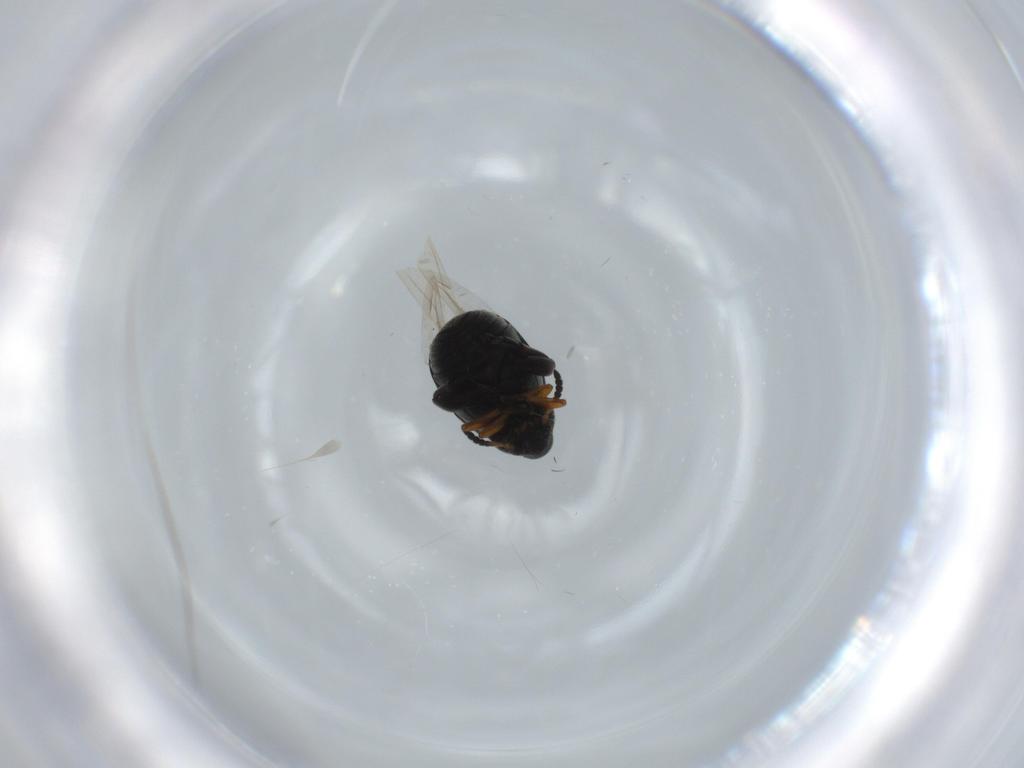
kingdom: Animalia
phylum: Arthropoda
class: Insecta
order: Coleoptera
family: Chrysomelidae
